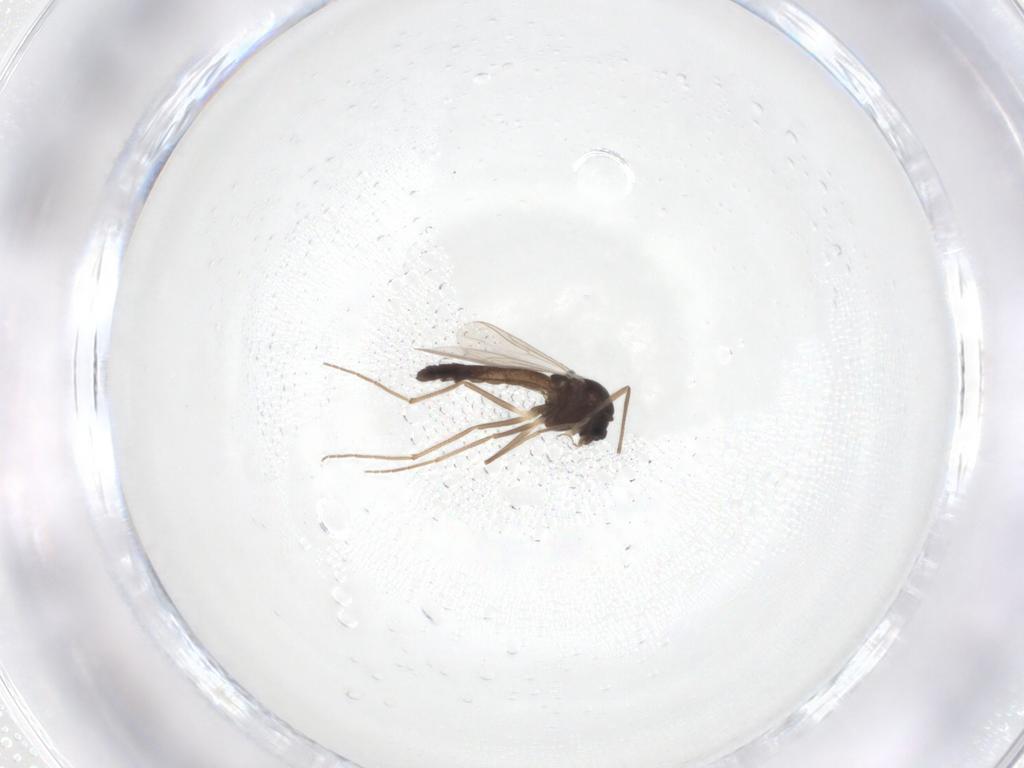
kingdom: Animalia
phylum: Arthropoda
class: Insecta
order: Diptera
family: Chironomidae
